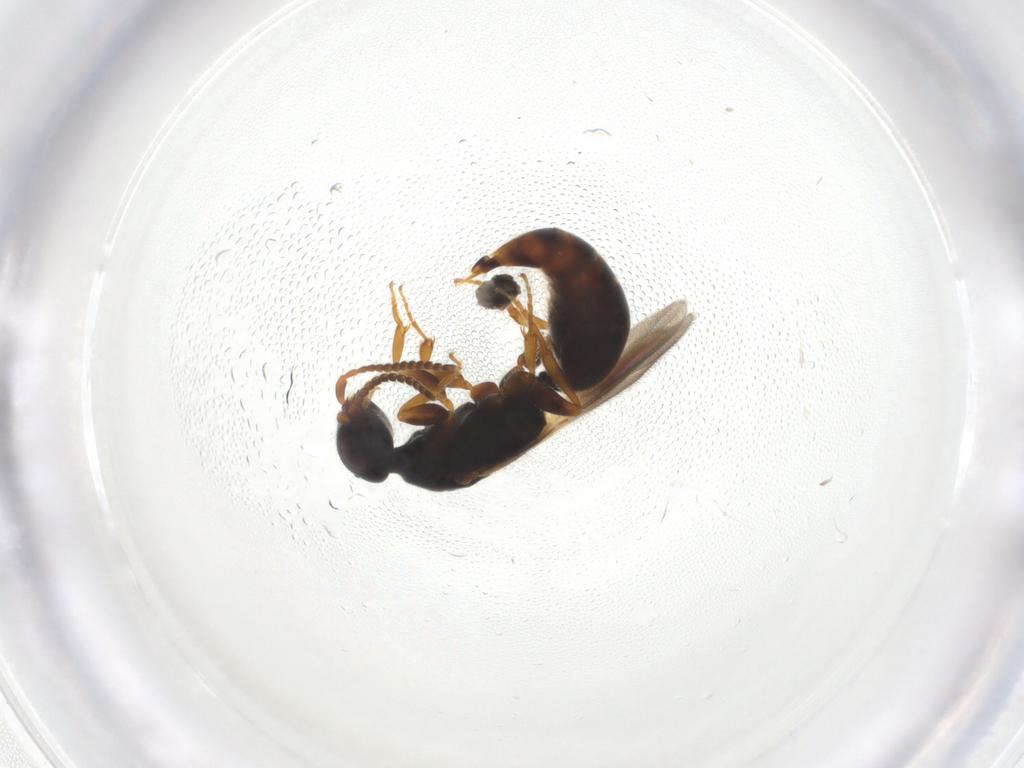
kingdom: Animalia
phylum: Arthropoda
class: Insecta
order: Hymenoptera
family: Bethylidae
